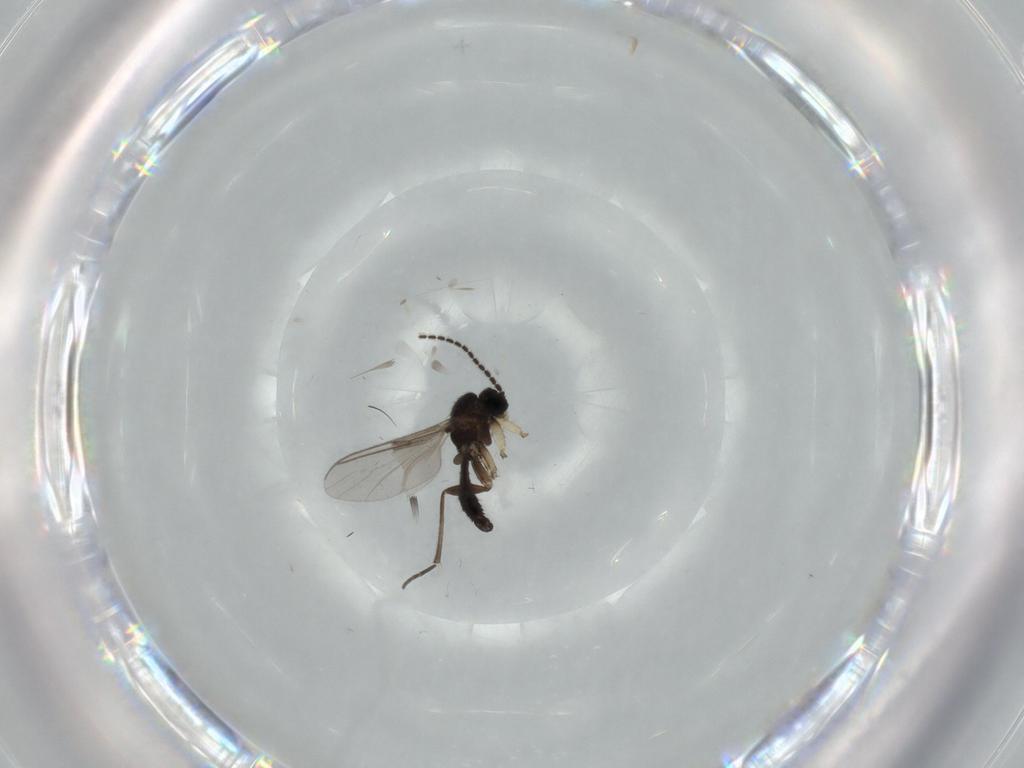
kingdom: Animalia
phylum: Arthropoda
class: Insecta
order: Diptera
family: Sciaridae
